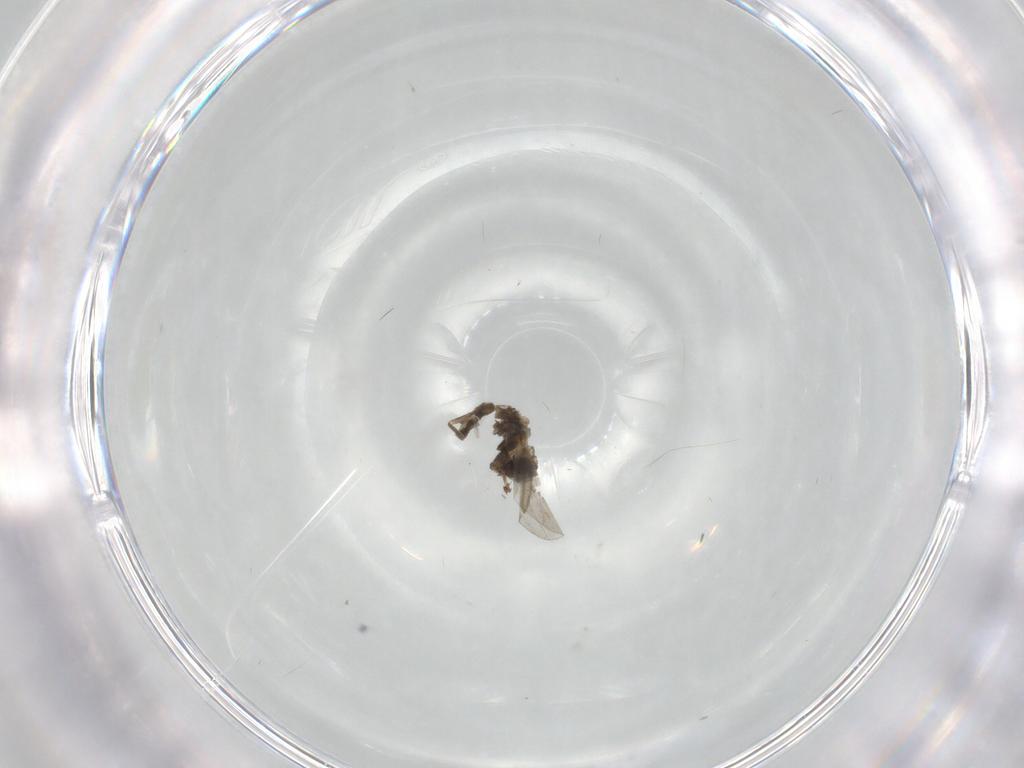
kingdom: Animalia
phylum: Arthropoda
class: Insecta
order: Diptera
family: Cecidomyiidae
